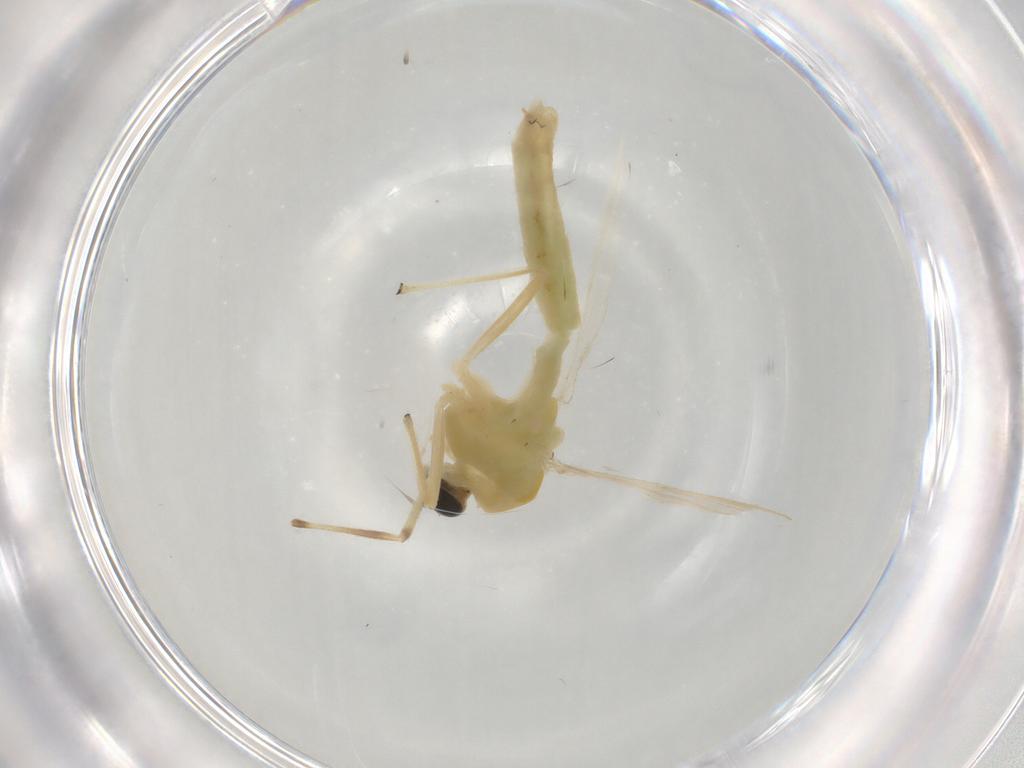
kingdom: Animalia
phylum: Arthropoda
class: Insecta
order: Diptera
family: Chironomidae
